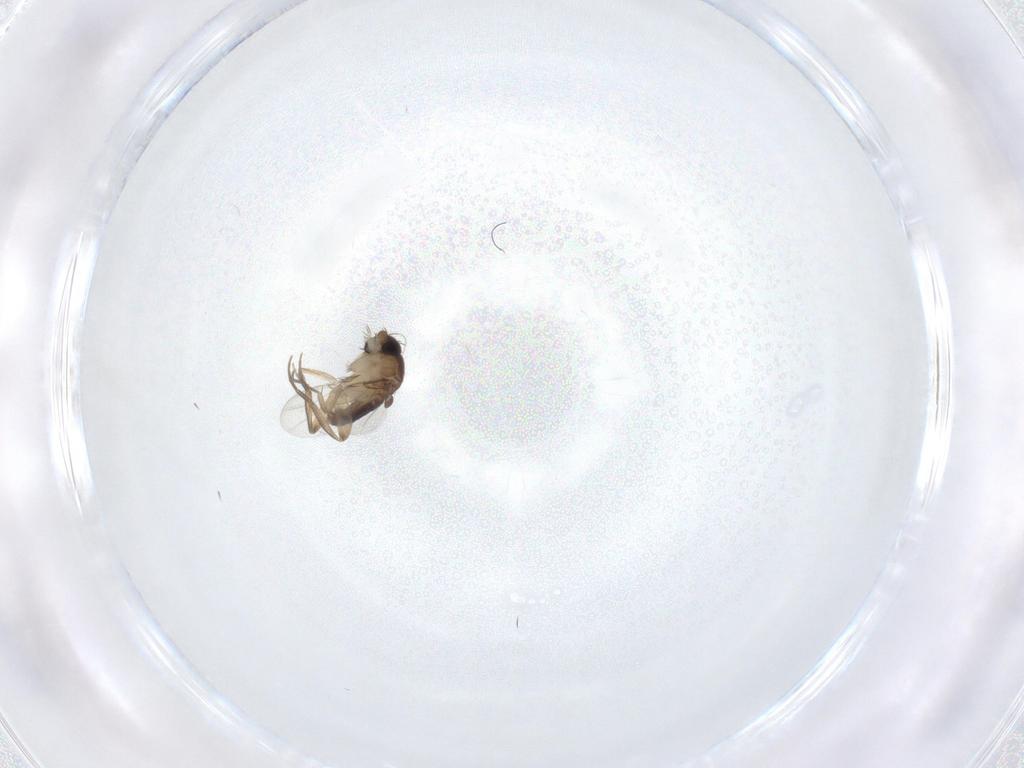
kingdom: Animalia
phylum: Arthropoda
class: Insecta
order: Diptera
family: Phoridae
